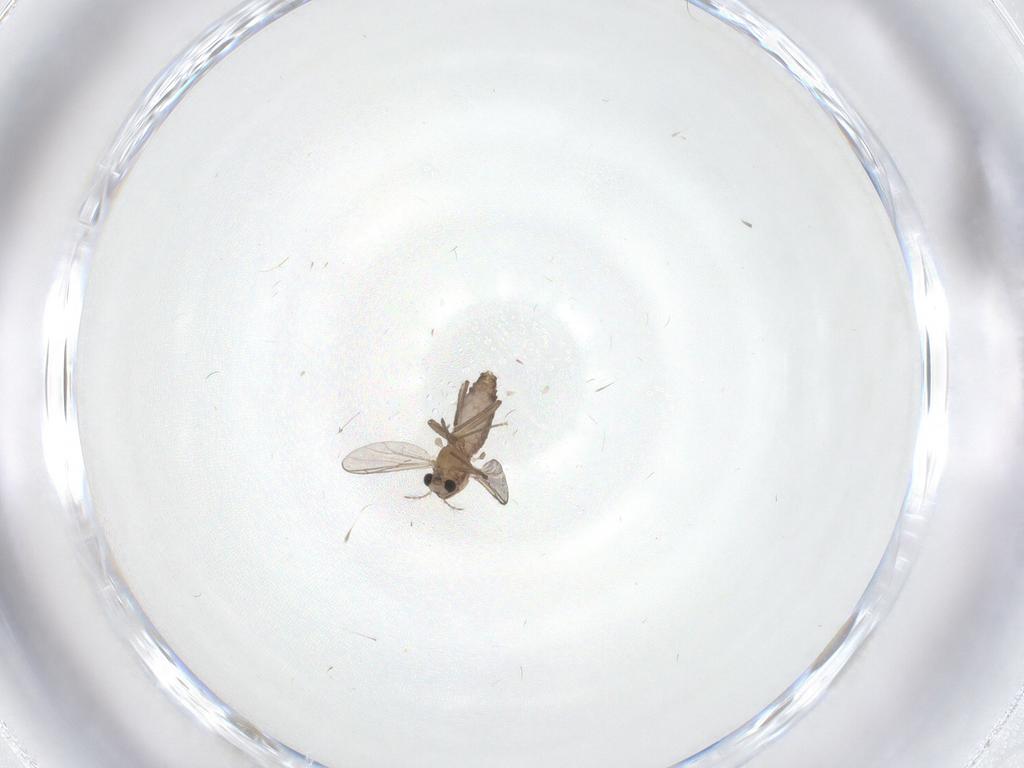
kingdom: Animalia
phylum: Arthropoda
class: Insecta
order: Diptera
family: Chironomidae
